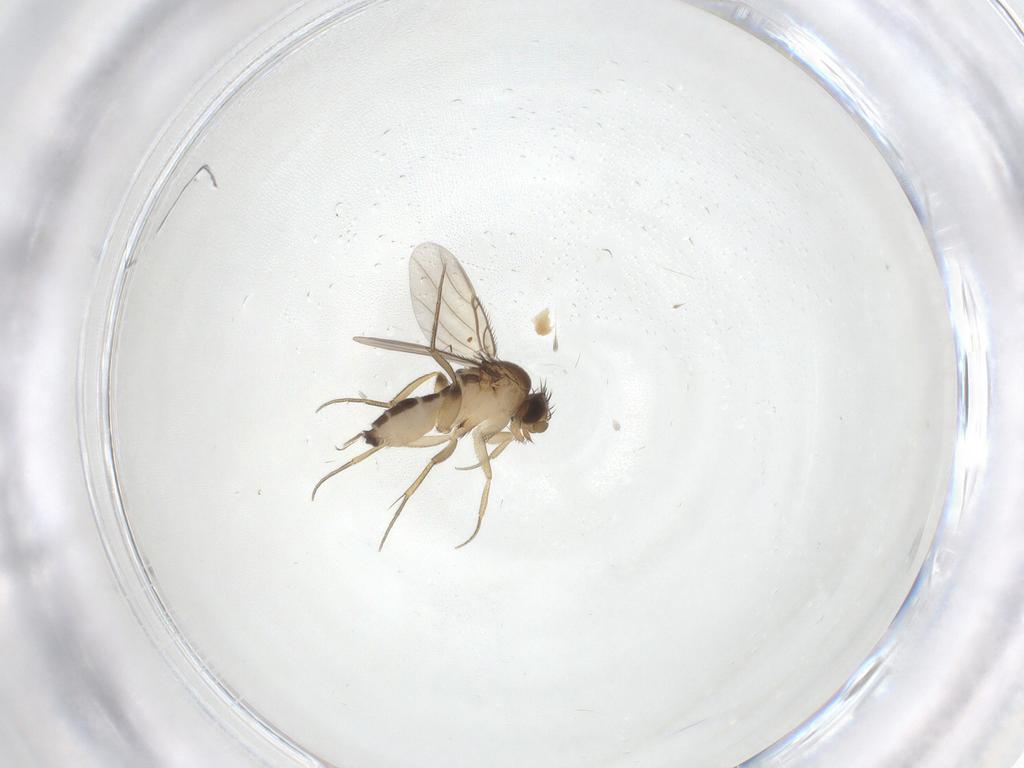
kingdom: Animalia
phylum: Arthropoda
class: Insecta
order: Diptera
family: Phoridae
